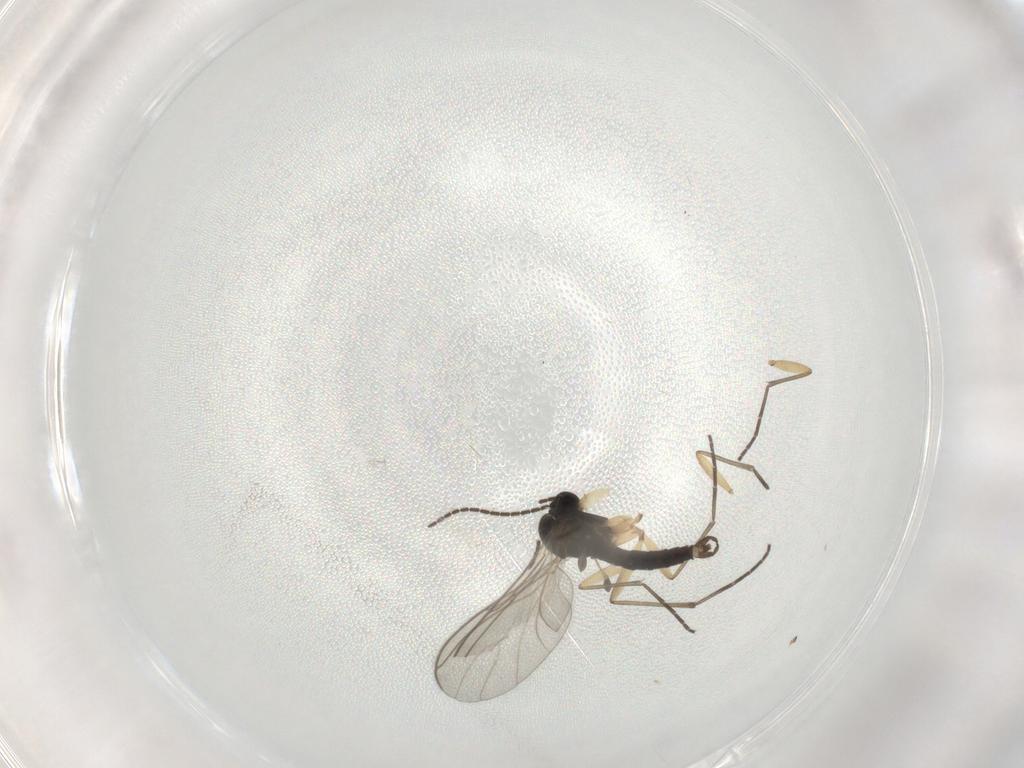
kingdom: Animalia
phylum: Arthropoda
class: Insecta
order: Diptera
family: Sciaridae
